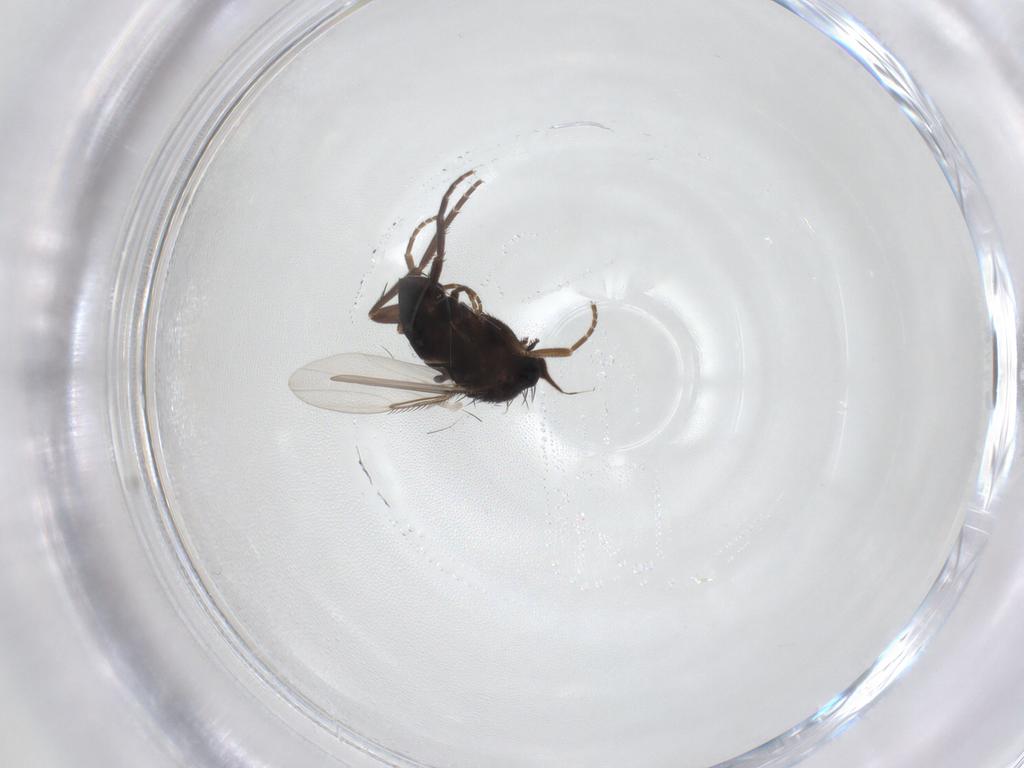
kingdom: Animalia
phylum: Arthropoda
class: Insecta
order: Diptera
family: Phoridae
